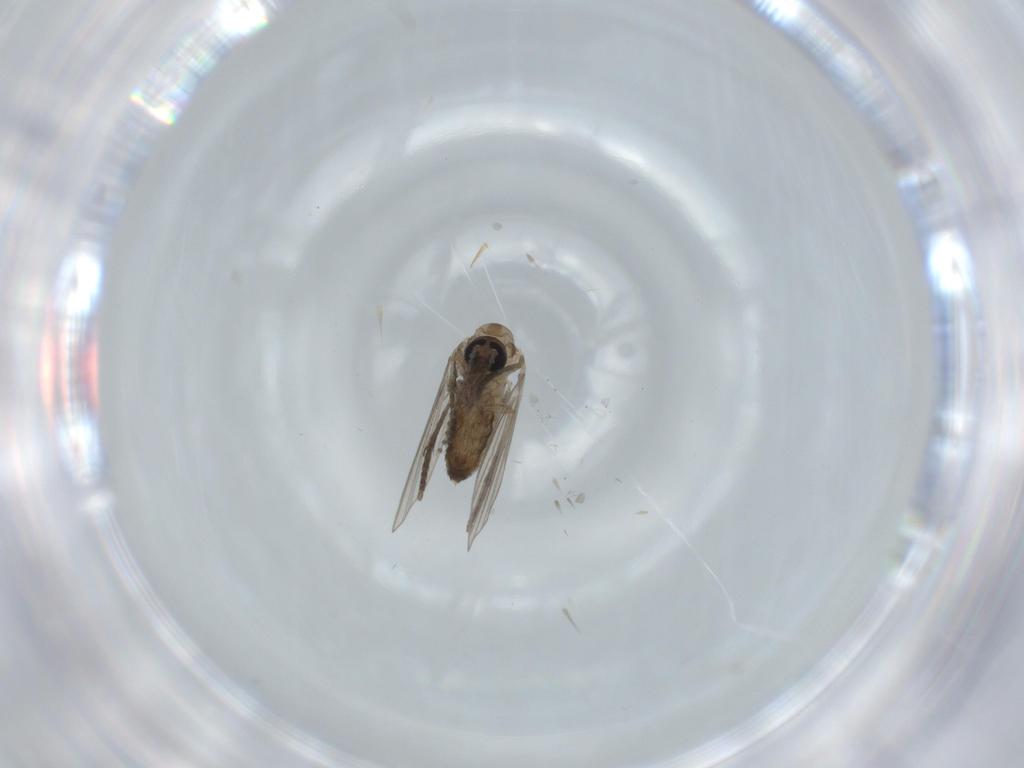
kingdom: Animalia
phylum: Arthropoda
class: Insecta
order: Diptera
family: Psychodidae
